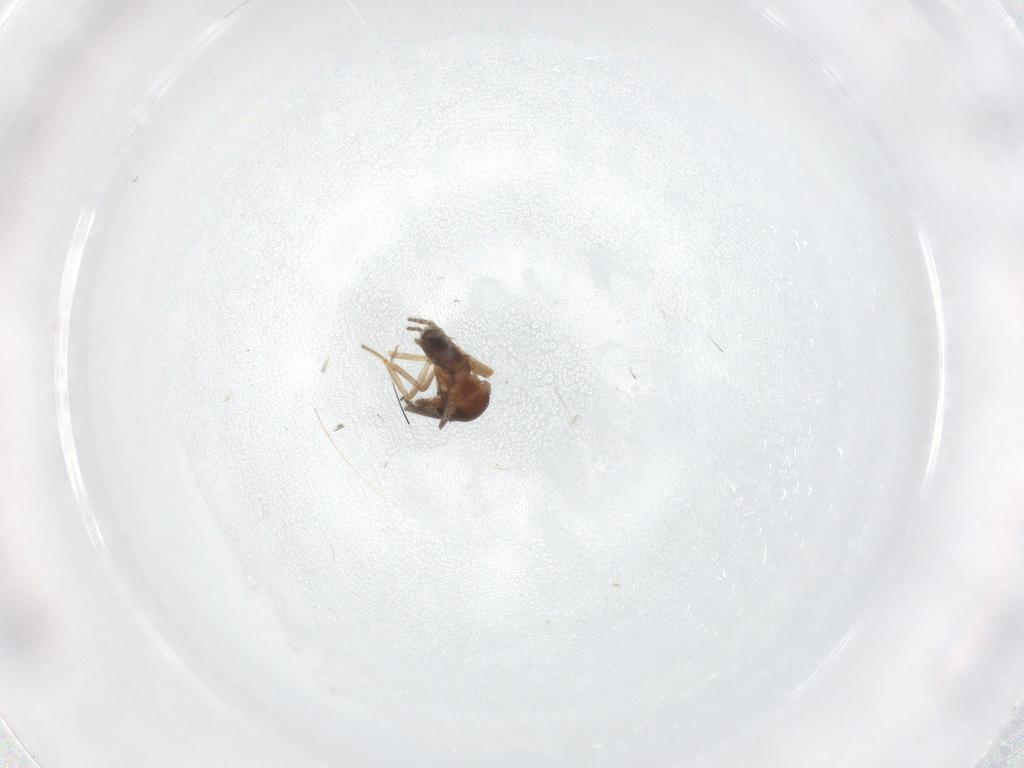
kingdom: Animalia
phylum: Arthropoda
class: Insecta
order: Diptera
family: Ceratopogonidae
